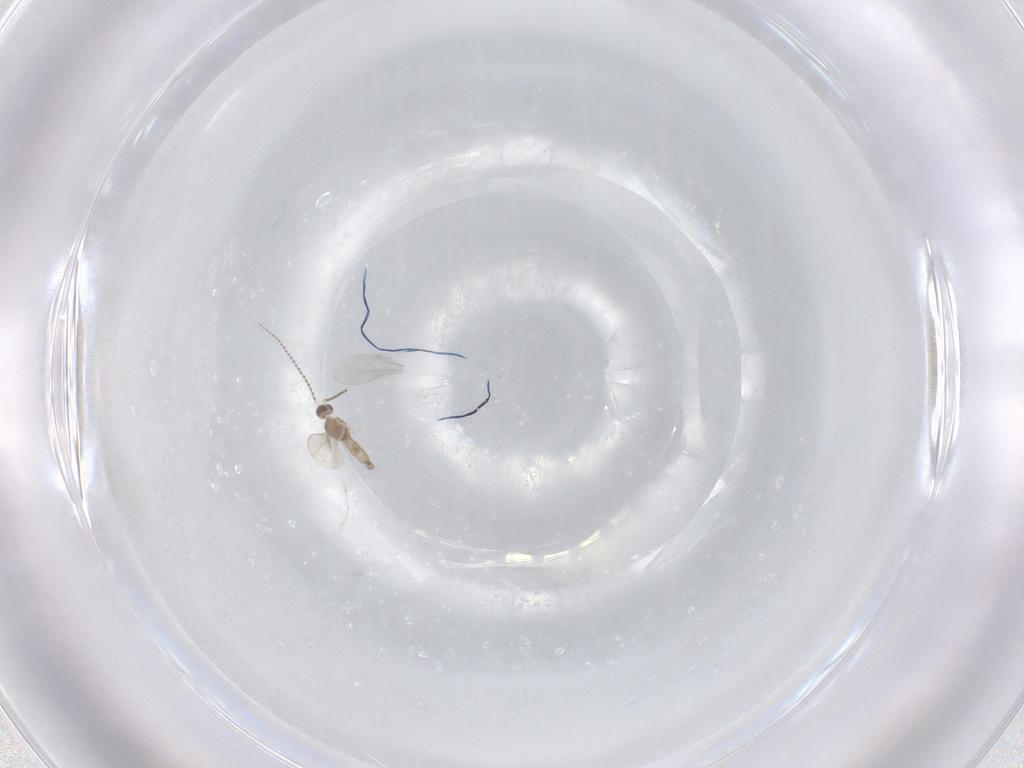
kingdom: Animalia
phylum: Arthropoda
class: Insecta
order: Diptera
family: Cecidomyiidae
